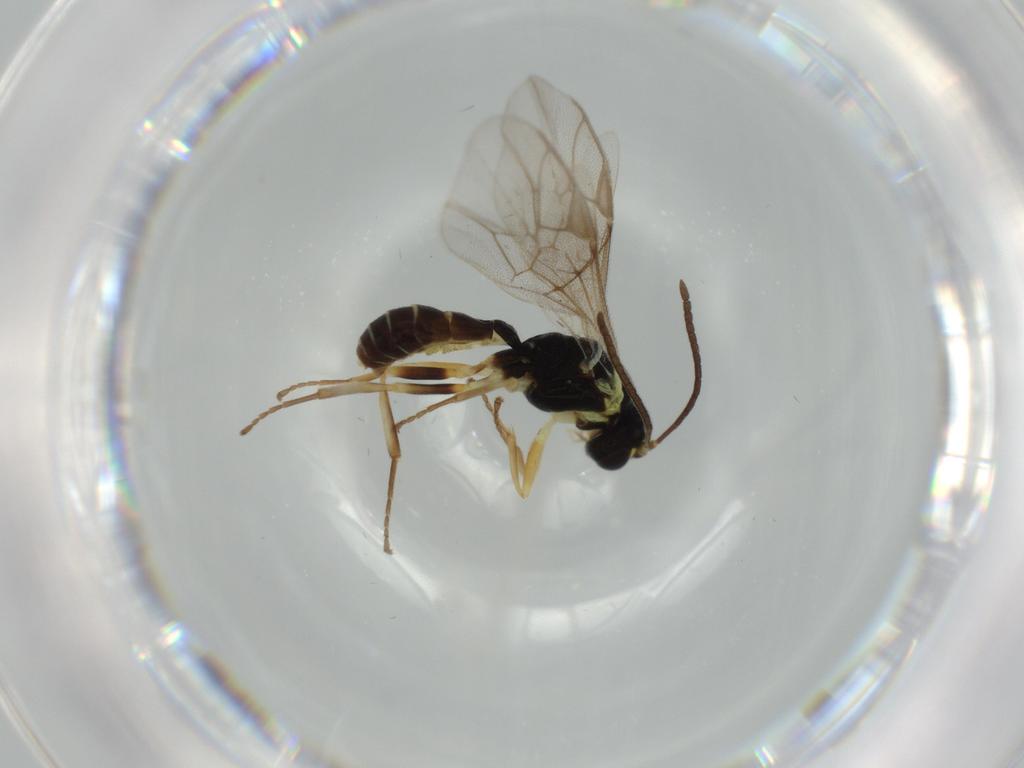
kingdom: Animalia
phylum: Arthropoda
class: Insecta
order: Hymenoptera
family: Ichneumonidae
